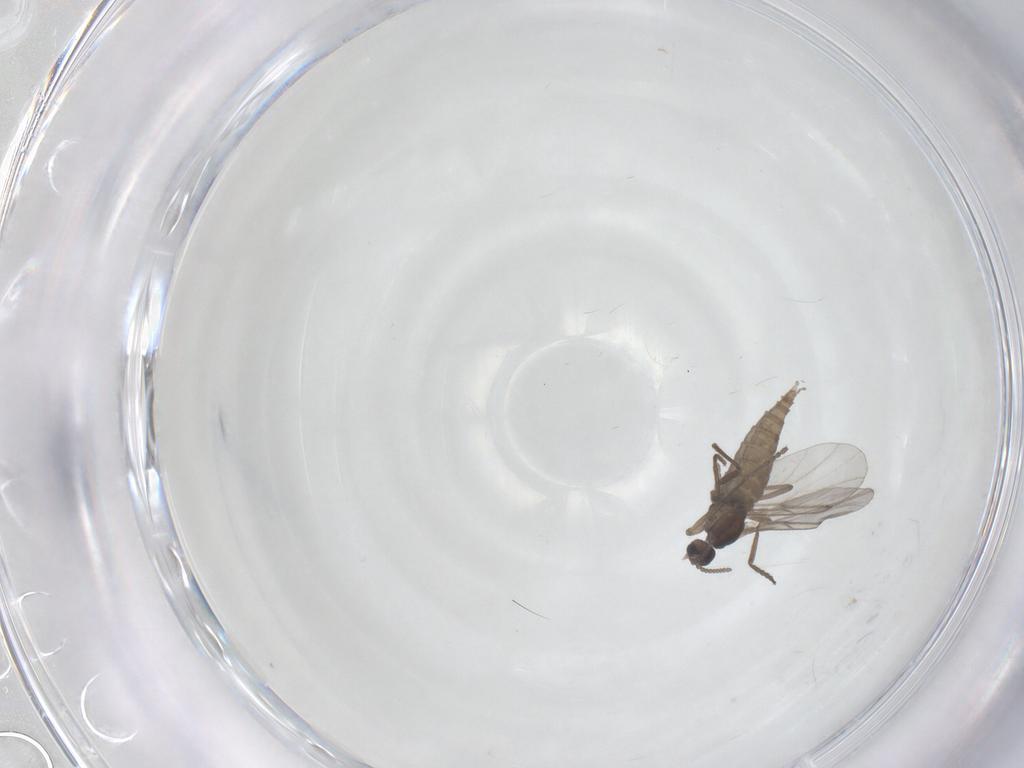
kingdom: Animalia
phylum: Arthropoda
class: Insecta
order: Diptera
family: Cecidomyiidae
